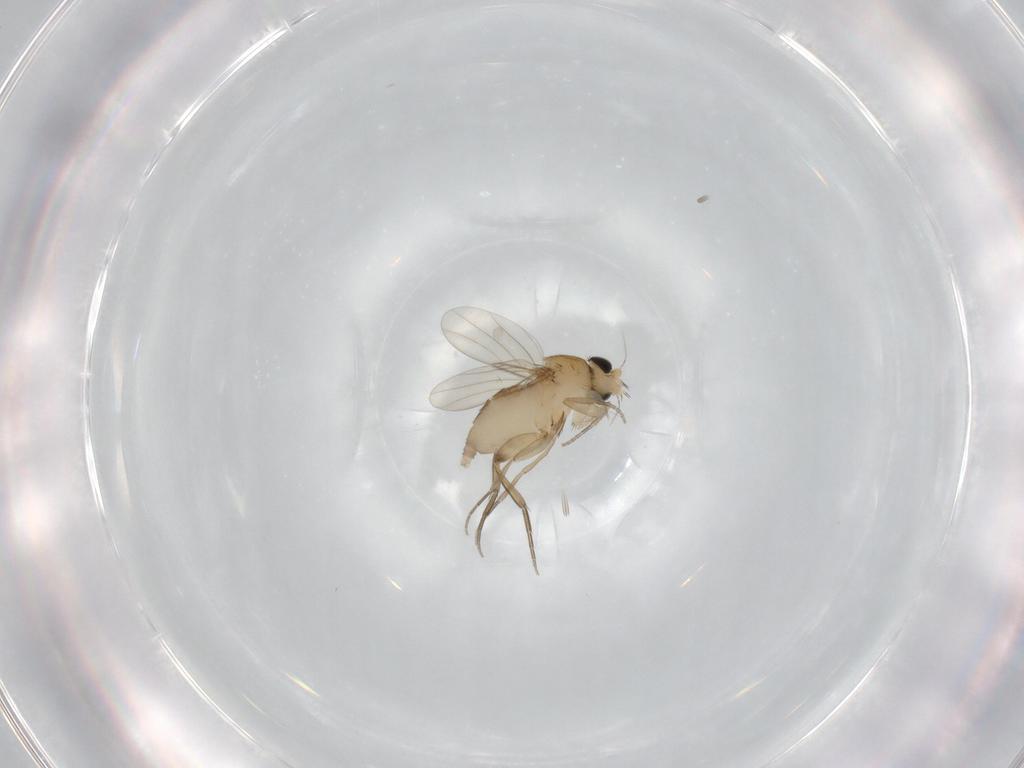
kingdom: Animalia
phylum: Arthropoda
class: Insecta
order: Diptera
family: Phoridae
